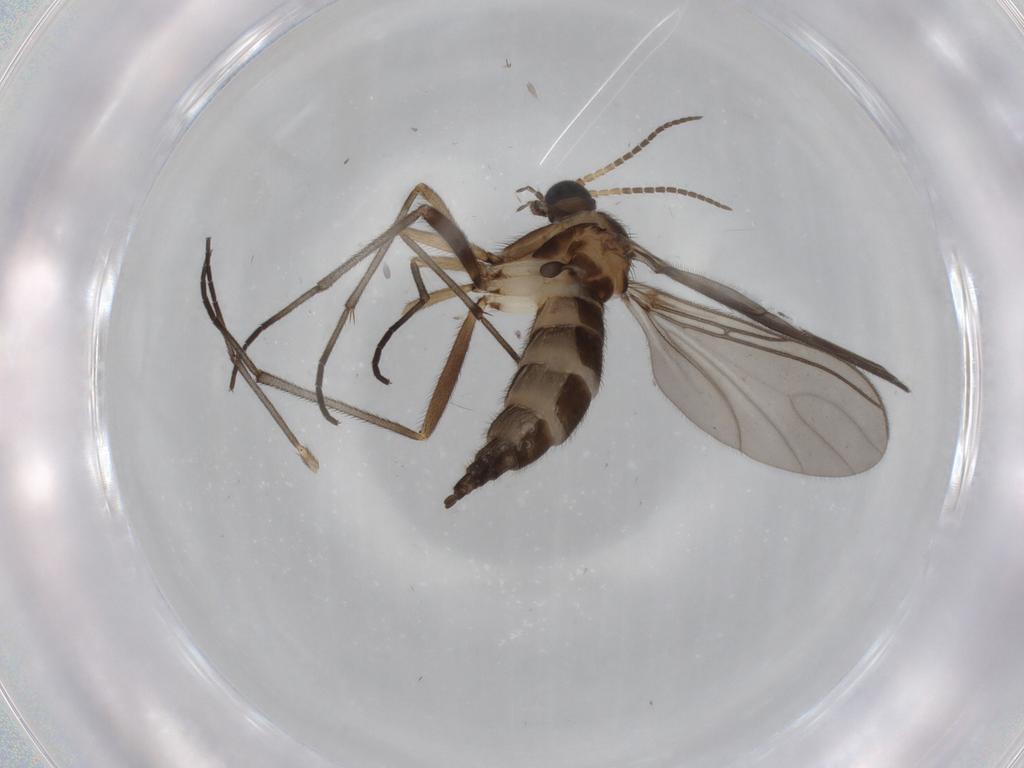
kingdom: Animalia
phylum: Arthropoda
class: Insecta
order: Diptera
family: Sciaridae
